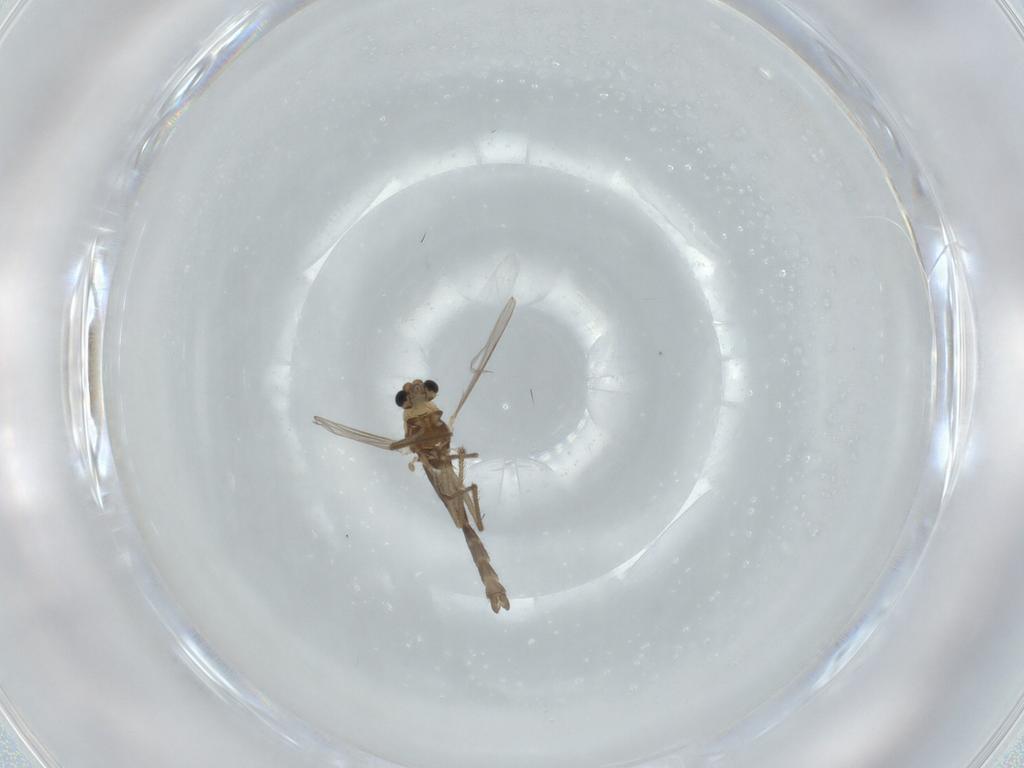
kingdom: Animalia
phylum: Arthropoda
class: Insecta
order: Diptera
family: Chironomidae
